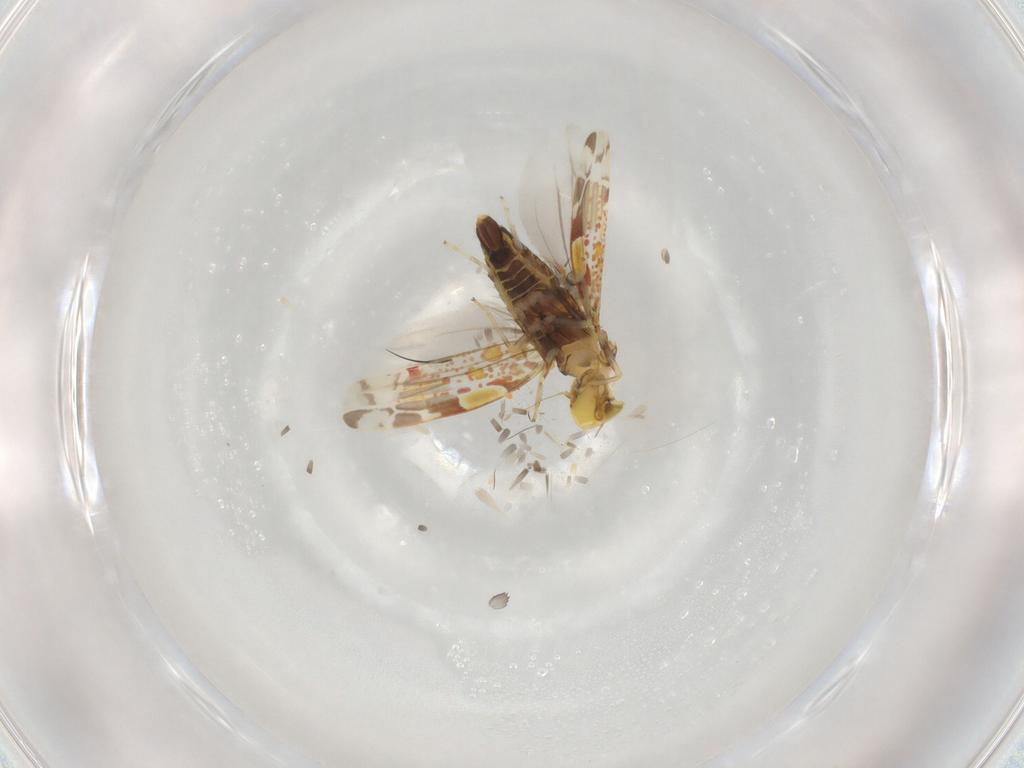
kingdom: Animalia
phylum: Arthropoda
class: Insecta
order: Hemiptera
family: Cicadellidae
